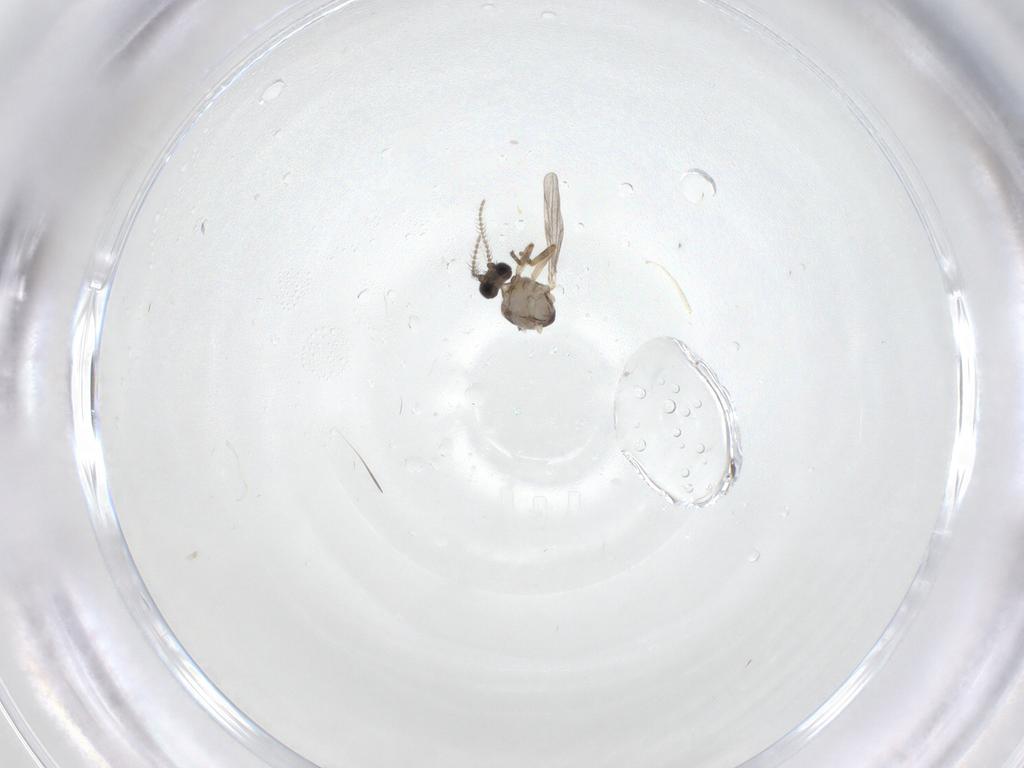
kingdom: Animalia
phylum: Arthropoda
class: Insecta
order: Diptera
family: Ceratopogonidae
